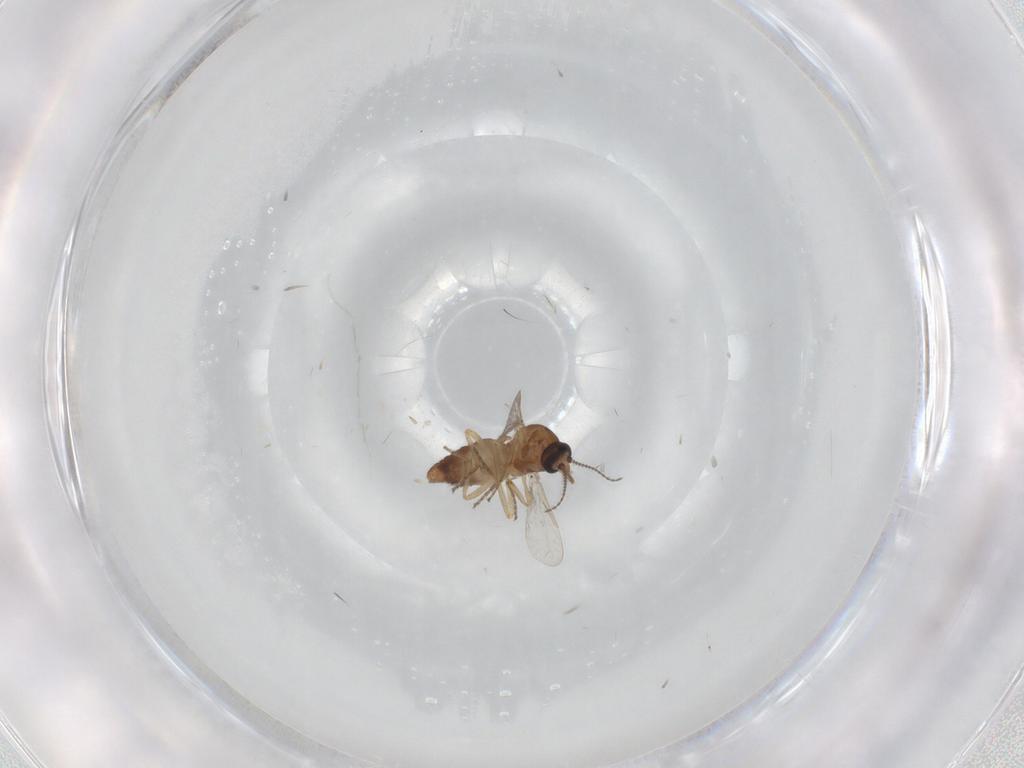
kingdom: Animalia
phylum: Arthropoda
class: Insecta
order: Diptera
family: Ceratopogonidae
